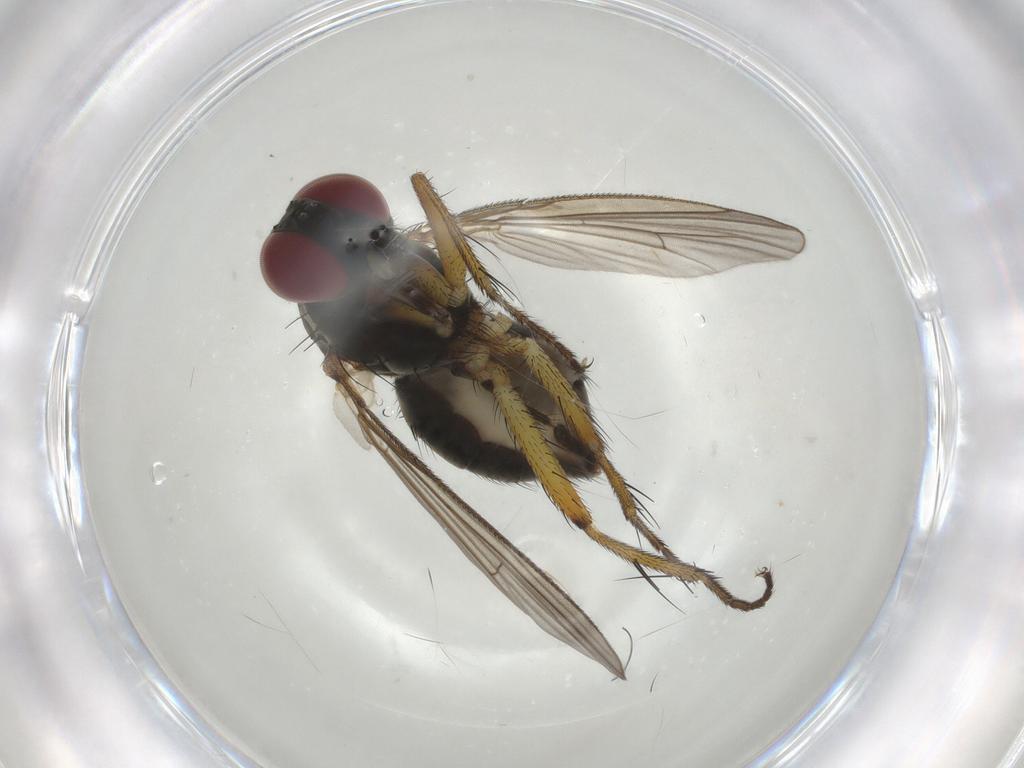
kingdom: Animalia
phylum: Arthropoda
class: Insecta
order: Diptera
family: Muscidae
